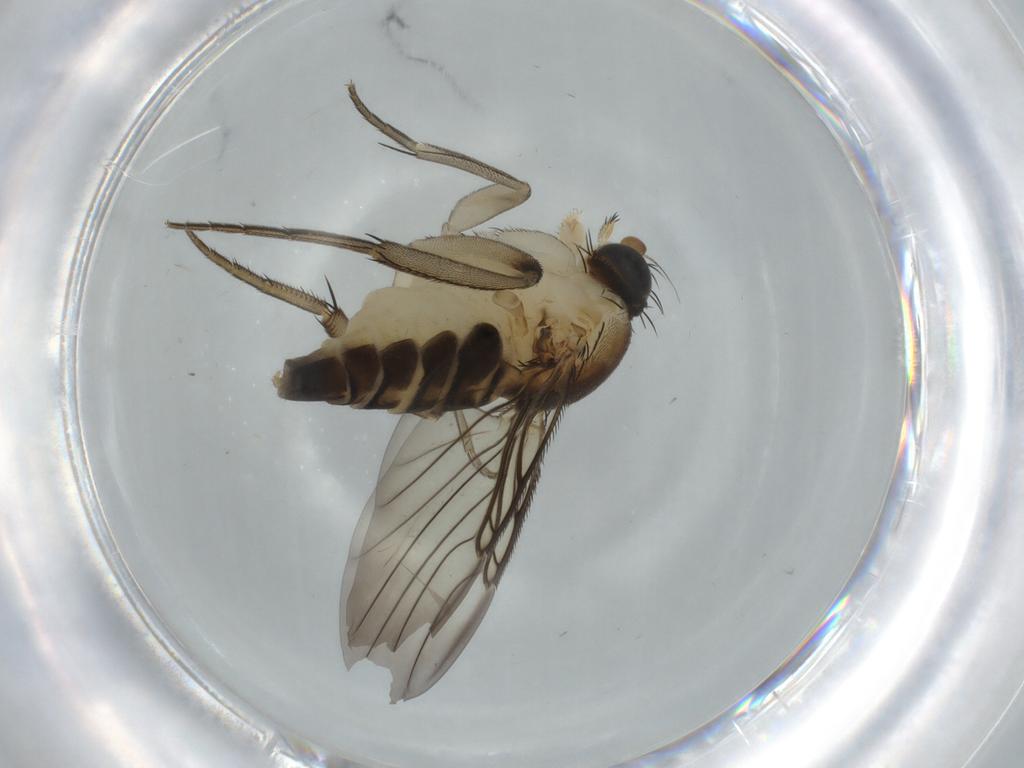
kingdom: Animalia
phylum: Arthropoda
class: Insecta
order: Diptera
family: Phoridae
